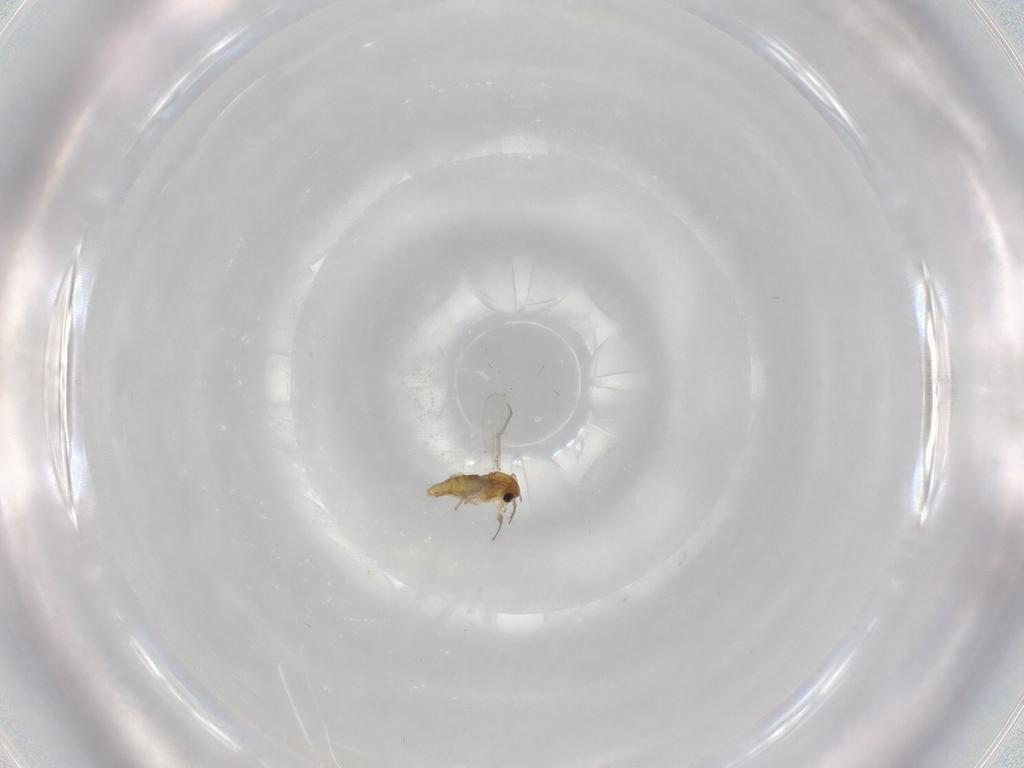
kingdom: Animalia
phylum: Arthropoda
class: Insecta
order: Diptera
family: Chironomidae
